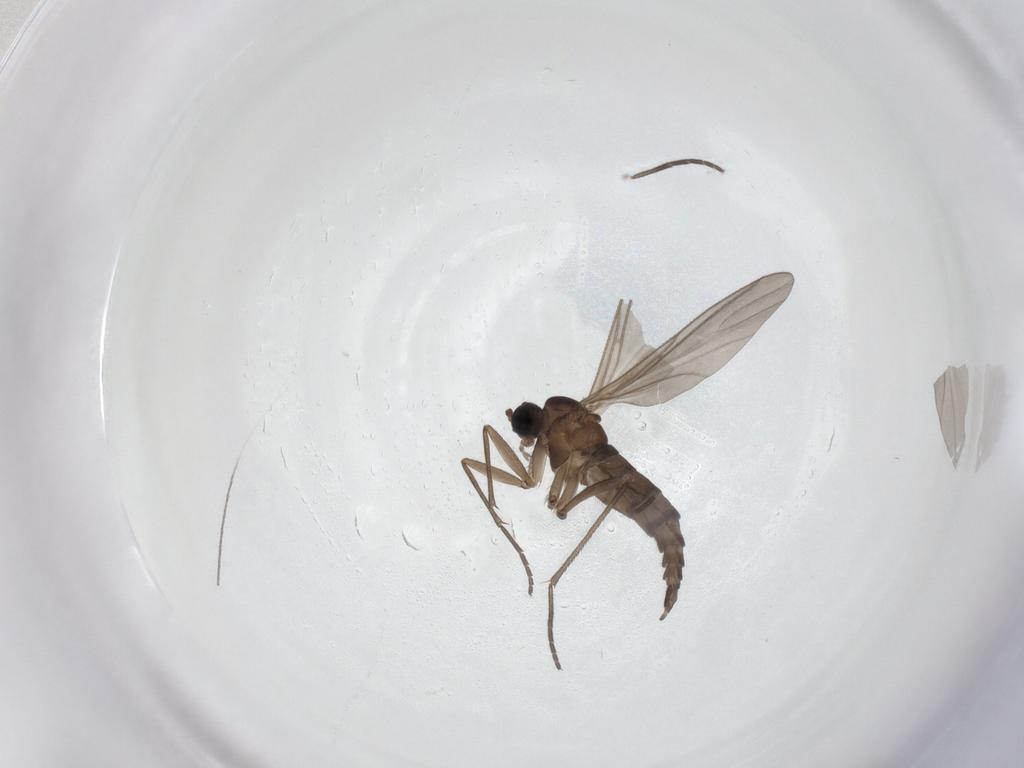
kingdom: Animalia
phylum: Arthropoda
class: Insecta
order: Diptera
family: Sciaridae
